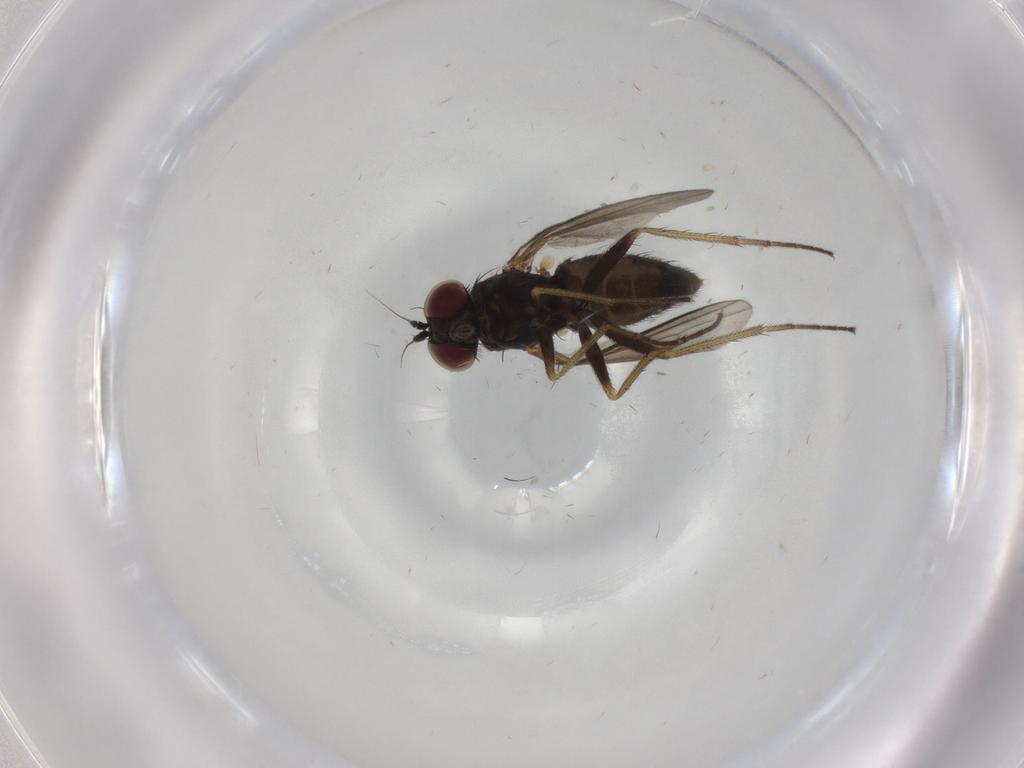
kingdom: Animalia
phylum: Arthropoda
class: Insecta
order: Diptera
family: Dolichopodidae
